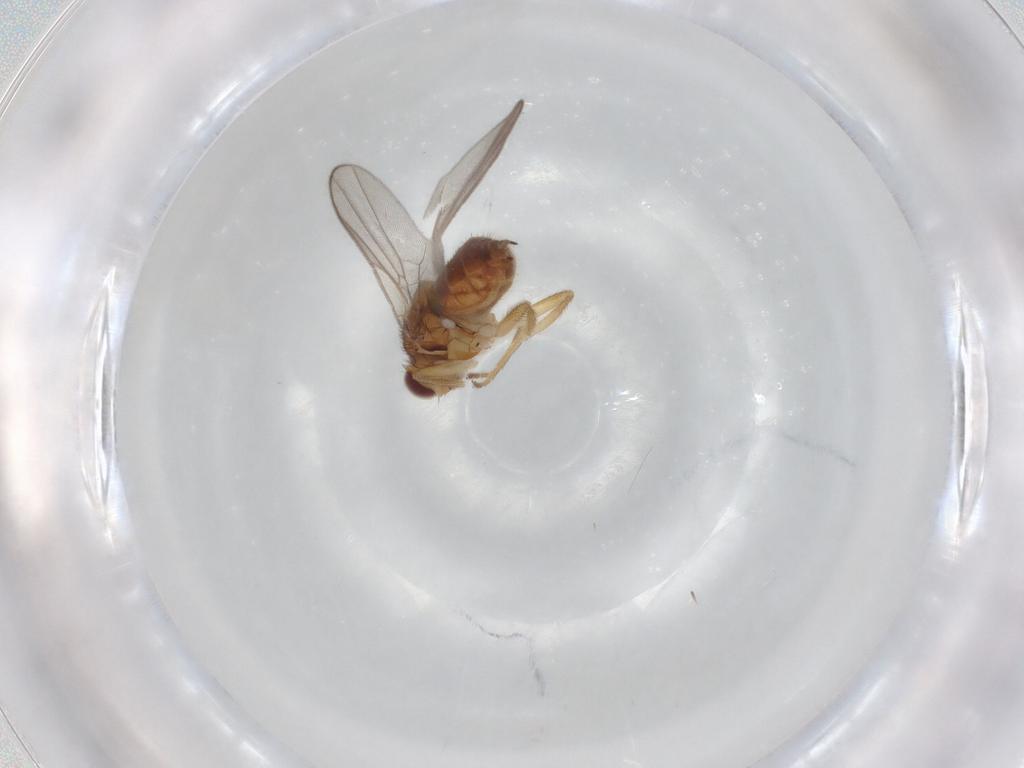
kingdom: Animalia
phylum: Arthropoda
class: Insecta
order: Diptera
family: Chloropidae
